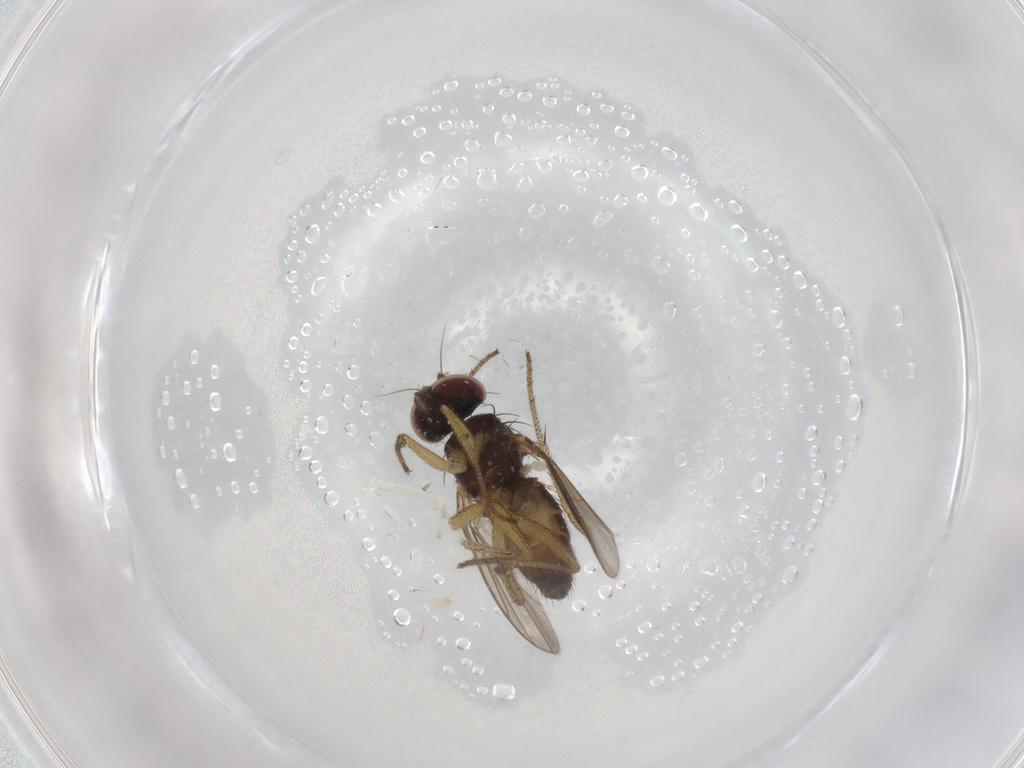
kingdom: Animalia
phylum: Arthropoda
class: Insecta
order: Diptera
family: Dolichopodidae
